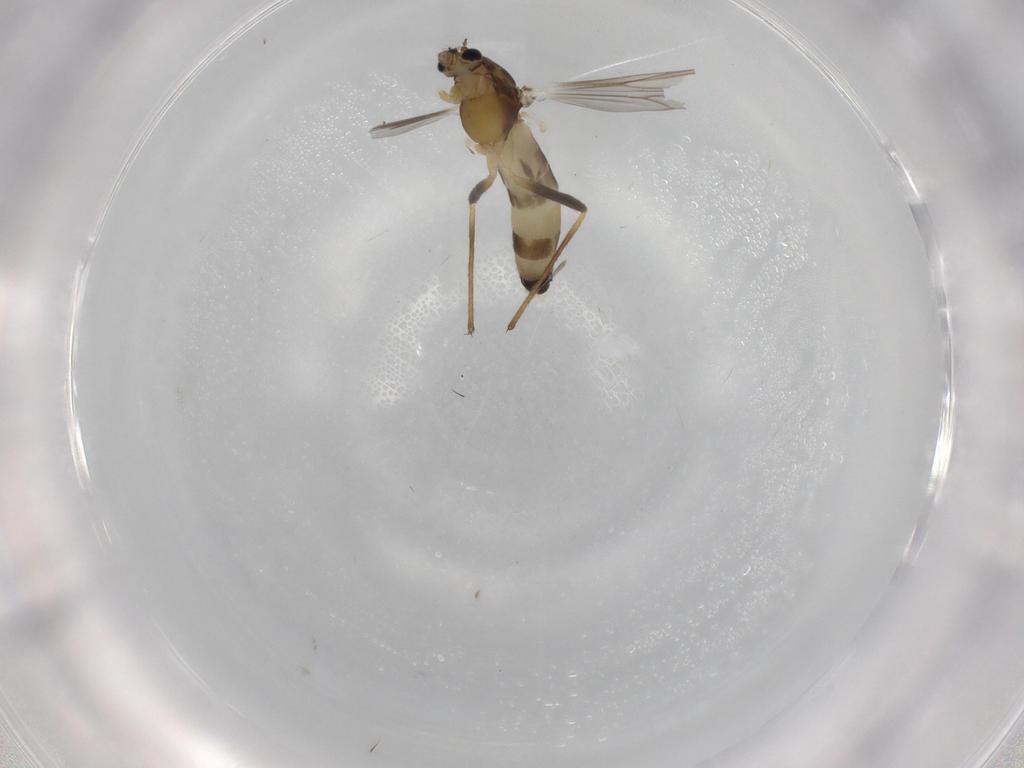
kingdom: Animalia
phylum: Arthropoda
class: Insecta
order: Diptera
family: Chironomidae
